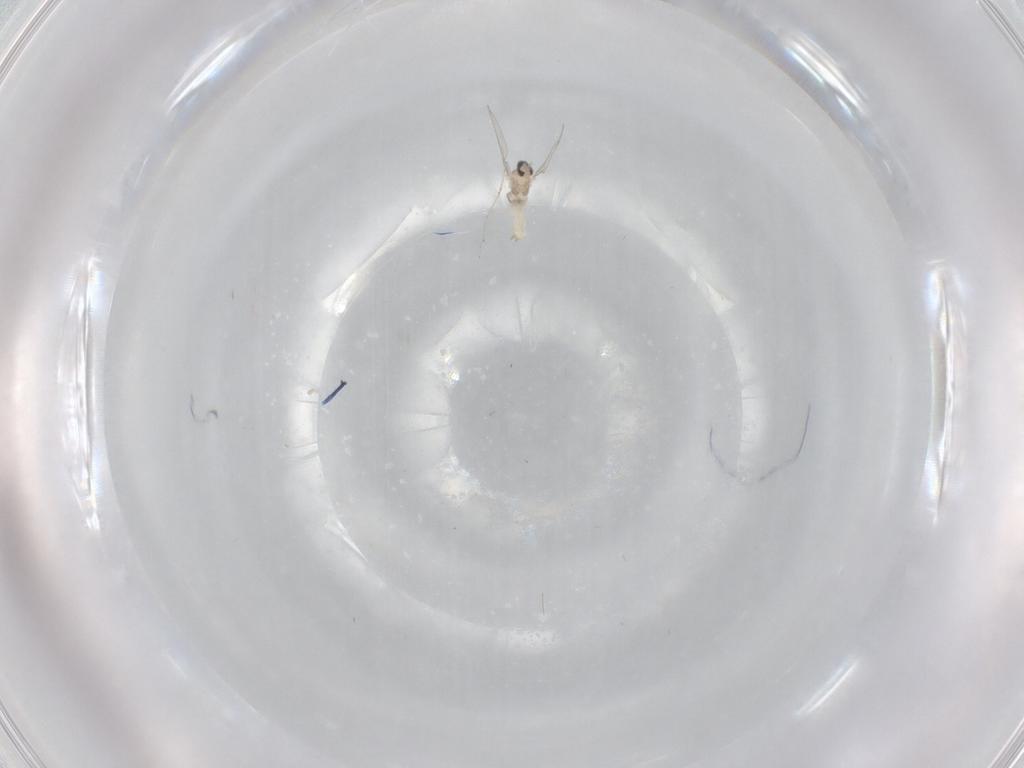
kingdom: Animalia
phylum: Arthropoda
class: Insecta
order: Diptera
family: Cecidomyiidae
